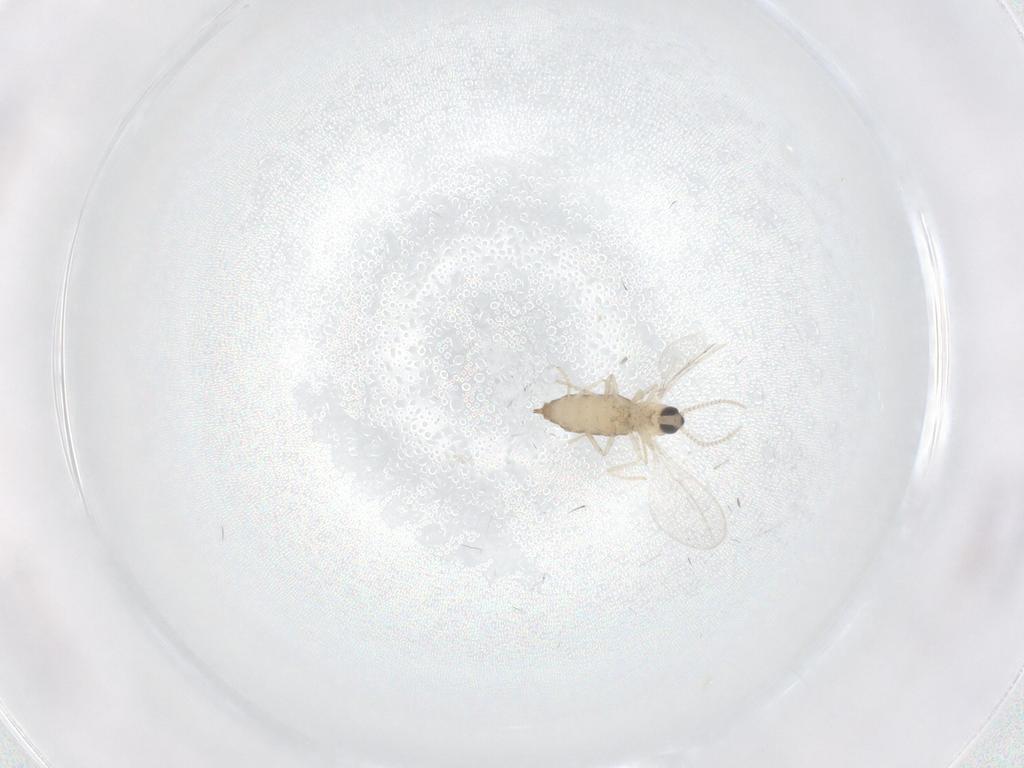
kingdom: Animalia
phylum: Arthropoda
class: Insecta
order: Diptera
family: Cecidomyiidae
